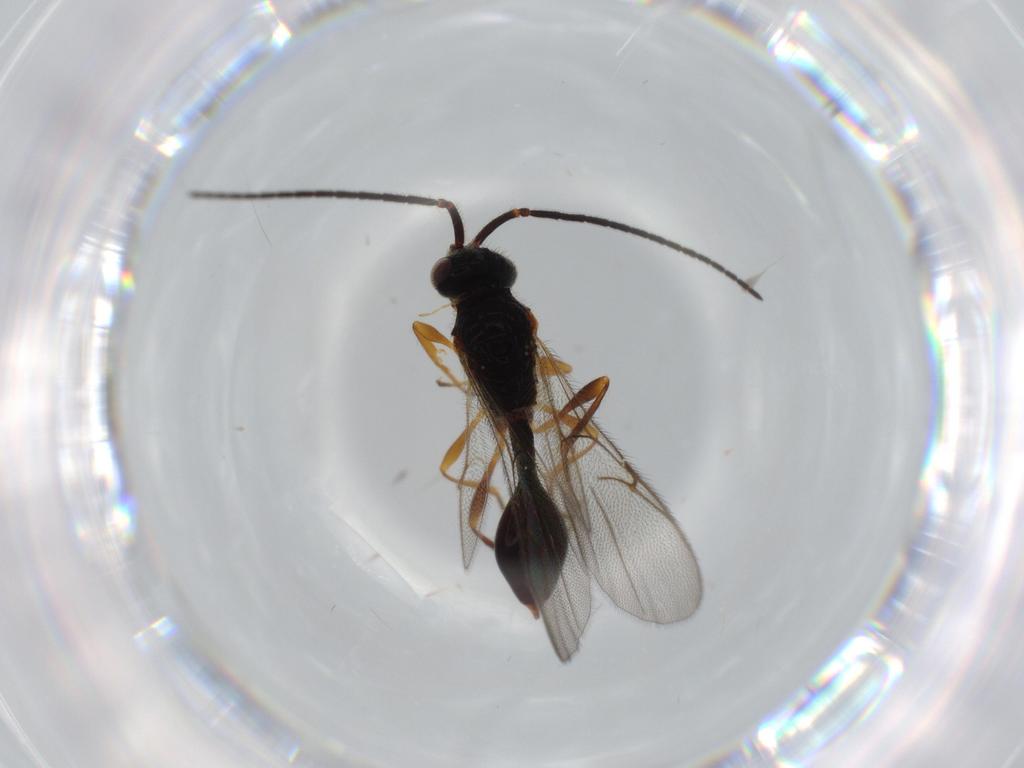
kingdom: Animalia
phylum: Arthropoda
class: Insecta
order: Hymenoptera
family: Diapriidae
